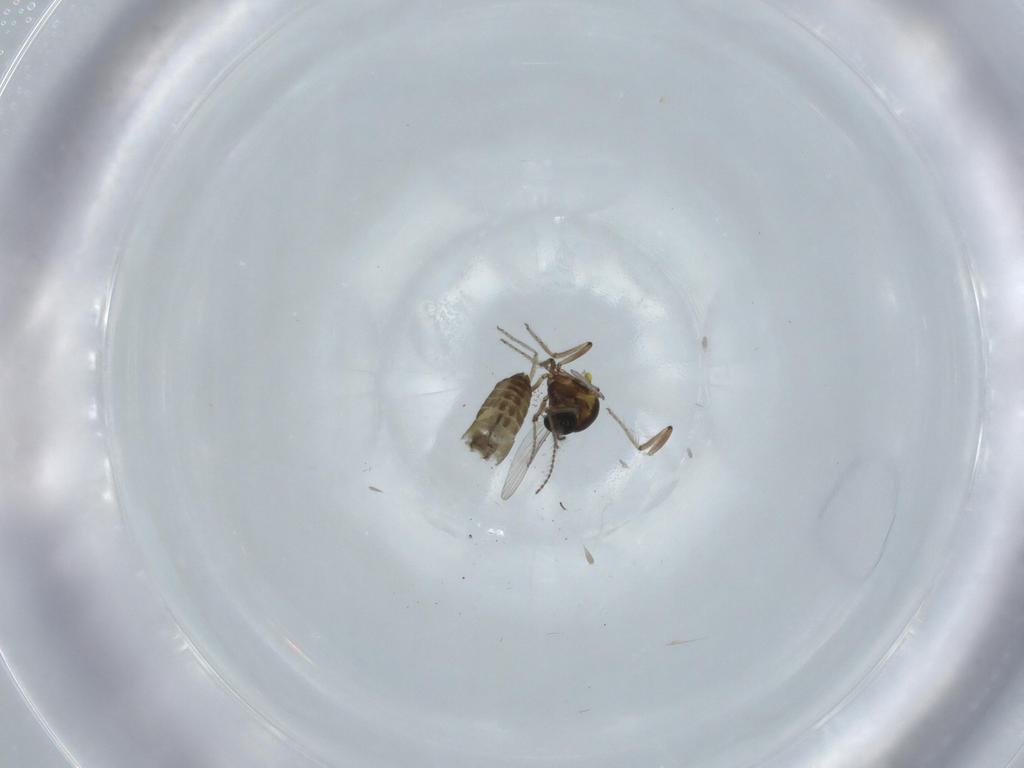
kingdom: Animalia
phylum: Arthropoda
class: Insecta
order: Diptera
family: Ceratopogonidae
